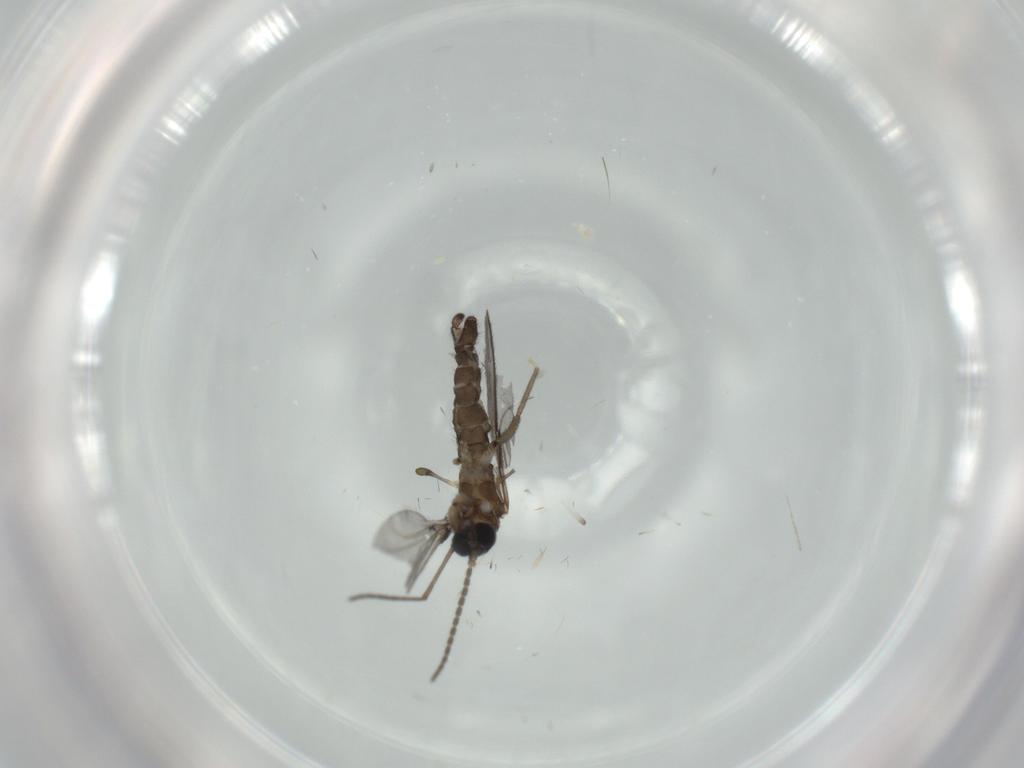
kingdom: Animalia
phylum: Arthropoda
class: Insecta
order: Diptera
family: Sciaridae
